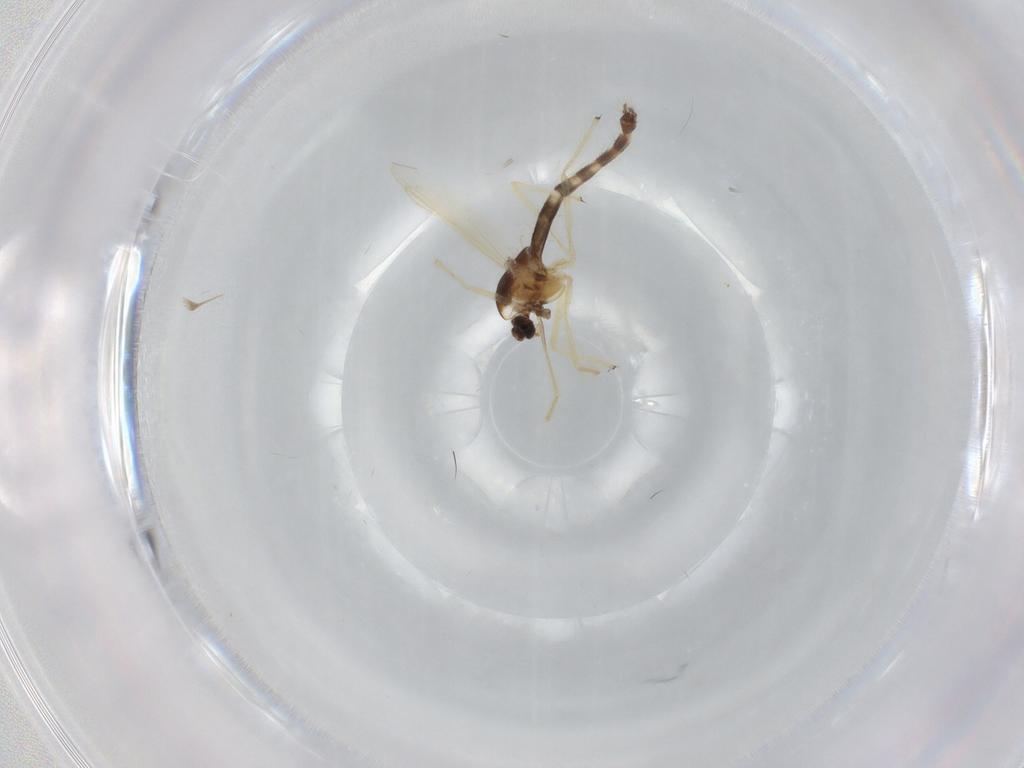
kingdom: Animalia
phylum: Arthropoda
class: Insecta
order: Diptera
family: Chironomidae
